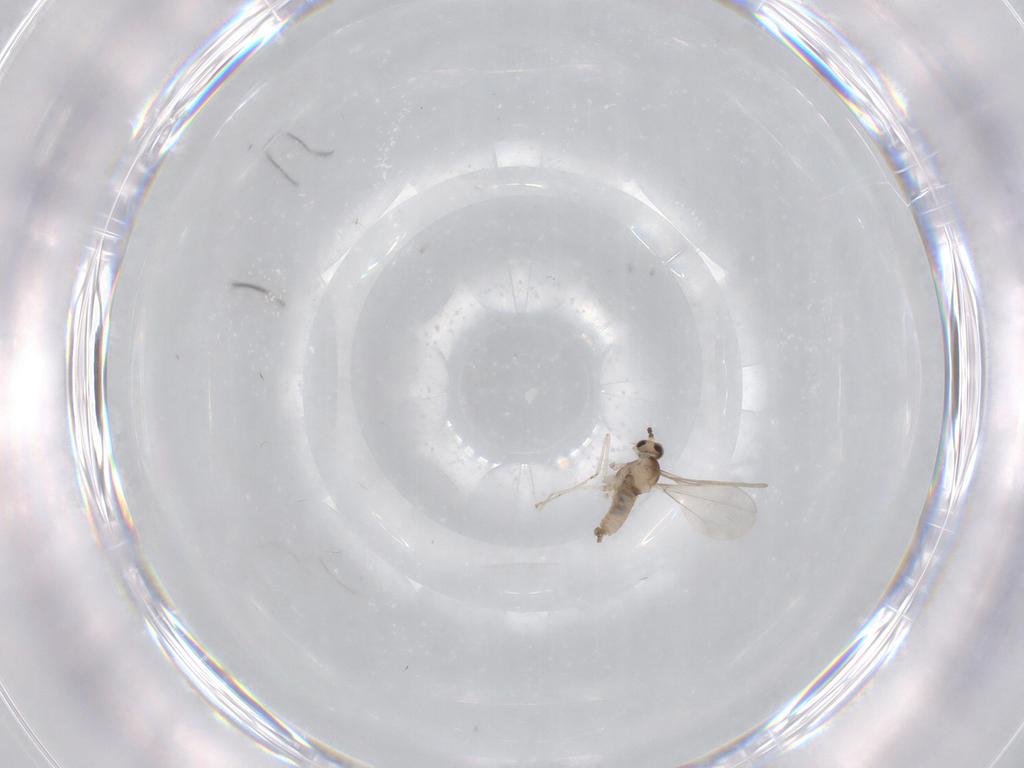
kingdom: Animalia
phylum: Arthropoda
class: Insecta
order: Diptera
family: Cecidomyiidae
